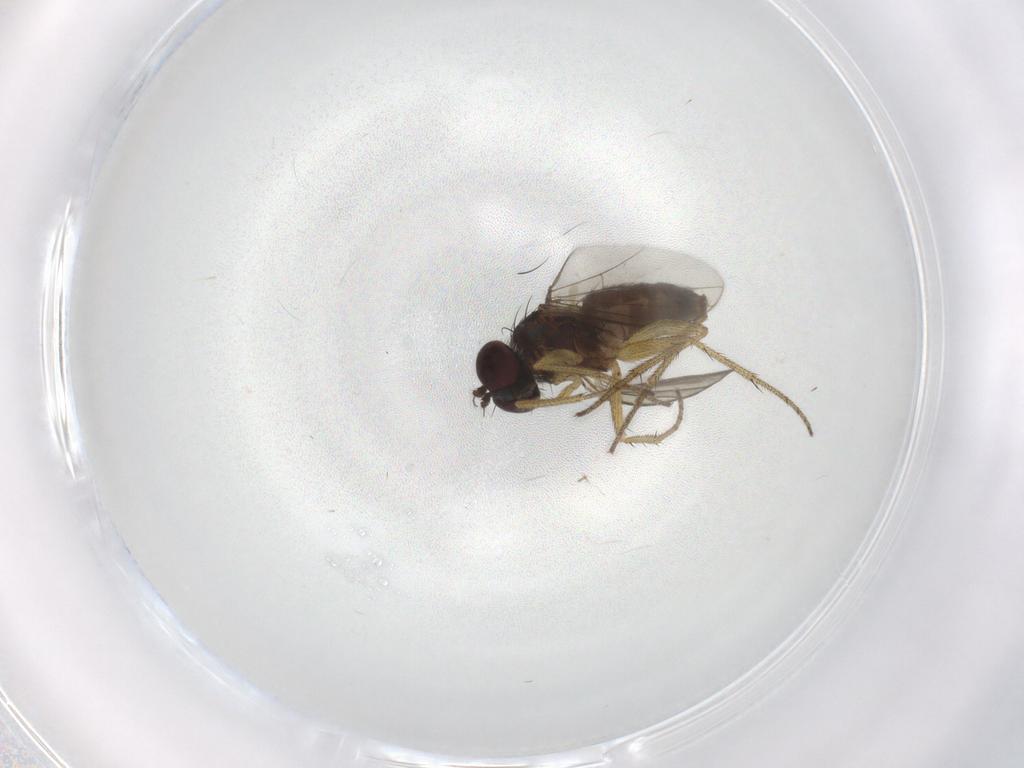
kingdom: Animalia
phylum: Arthropoda
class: Insecta
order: Diptera
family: Dolichopodidae
